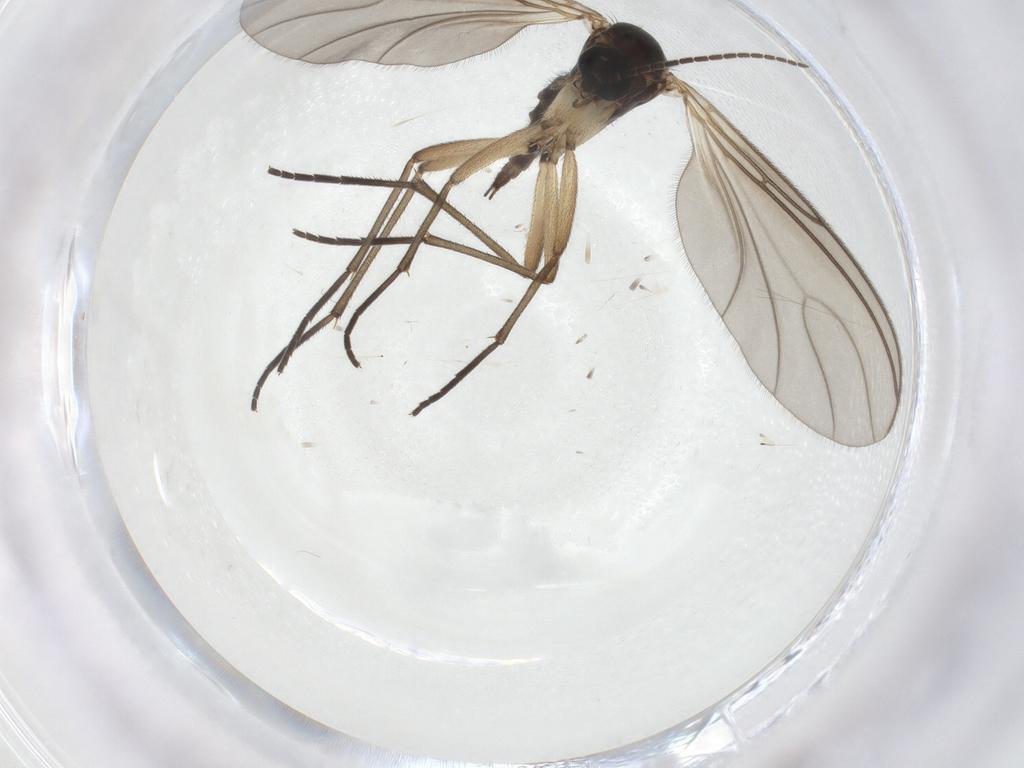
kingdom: Animalia
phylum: Arthropoda
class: Insecta
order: Diptera
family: Sciaridae
